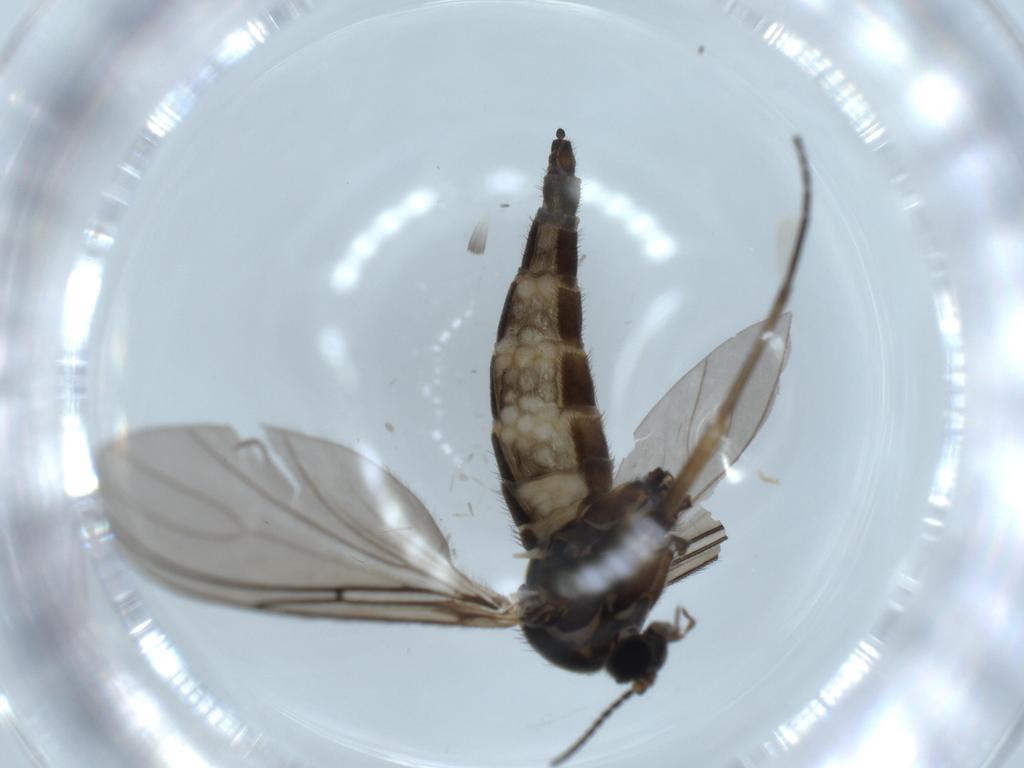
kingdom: Animalia
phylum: Arthropoda
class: Insecta
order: Diptera
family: Sciaridae
